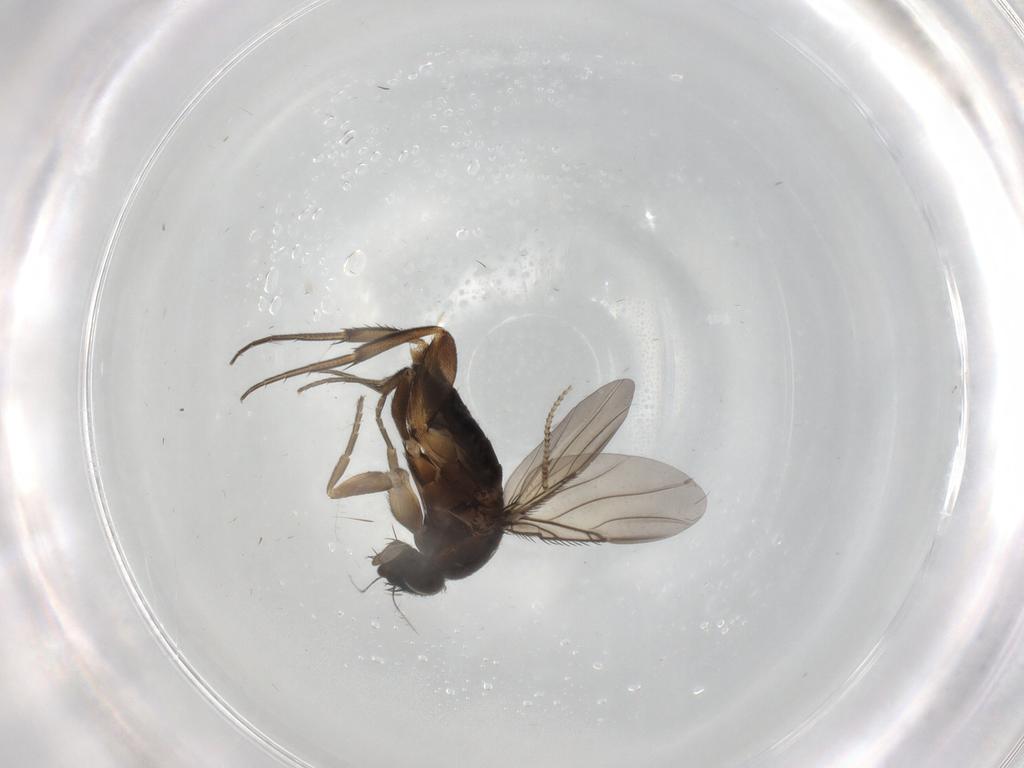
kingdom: Animalia
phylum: Arthropoda
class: Insecta
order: Diptera
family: Phoridae
